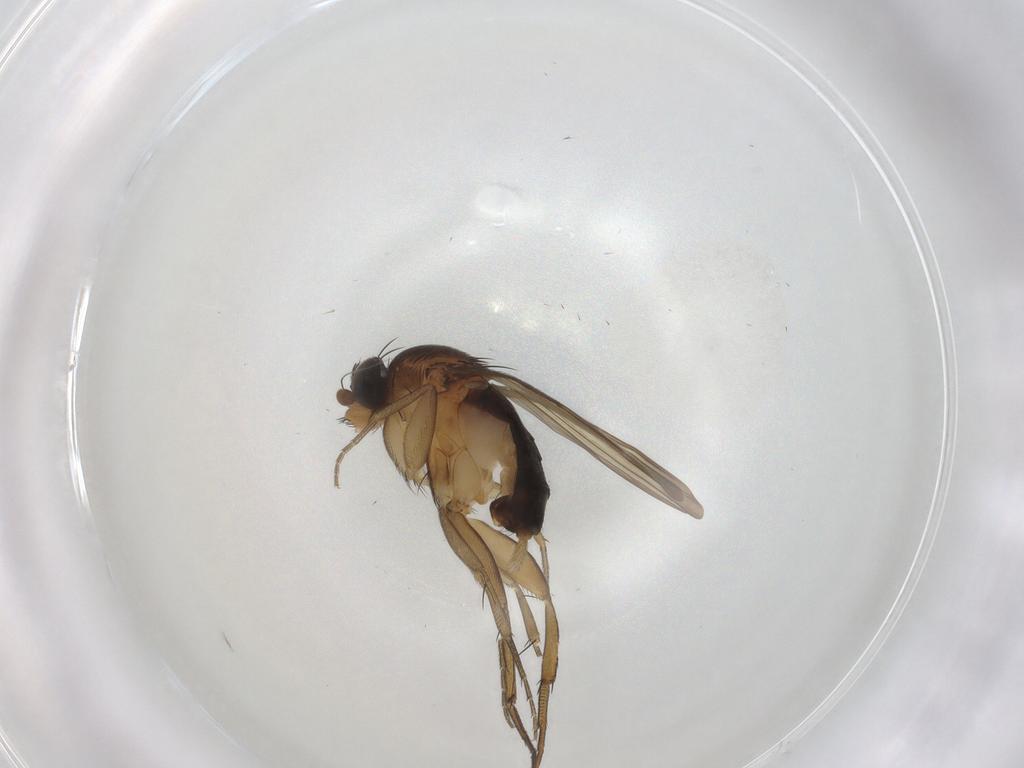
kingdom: Animalia
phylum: Arthropoda
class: Insecta
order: Diptera
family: Phoridae
